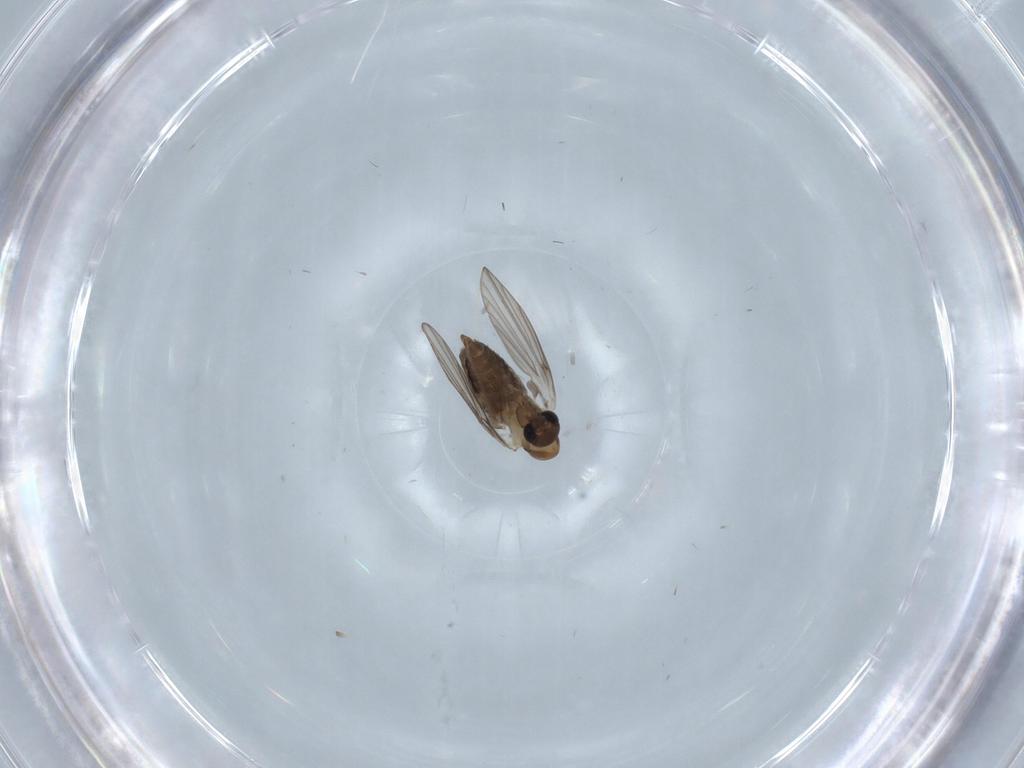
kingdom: Animalia
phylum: Arthropoda
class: Insecta
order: Diptera
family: Psychodidae
